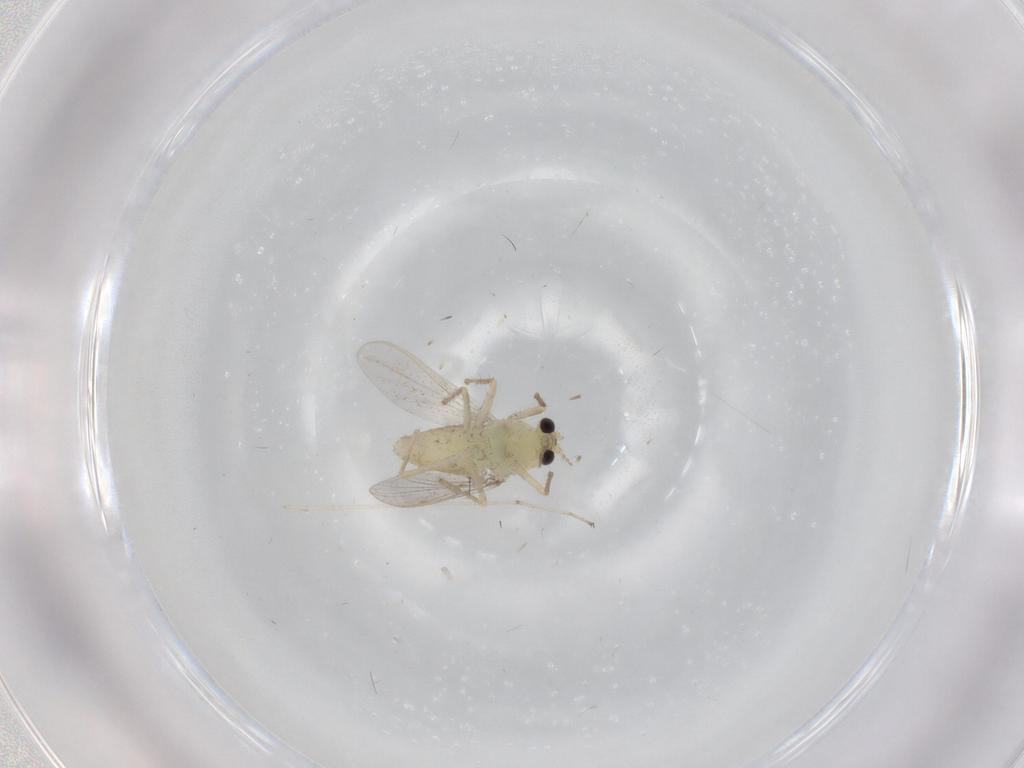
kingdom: Animalia
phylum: Arthropoda
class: Insecta
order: Diptera
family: Chironomidae
